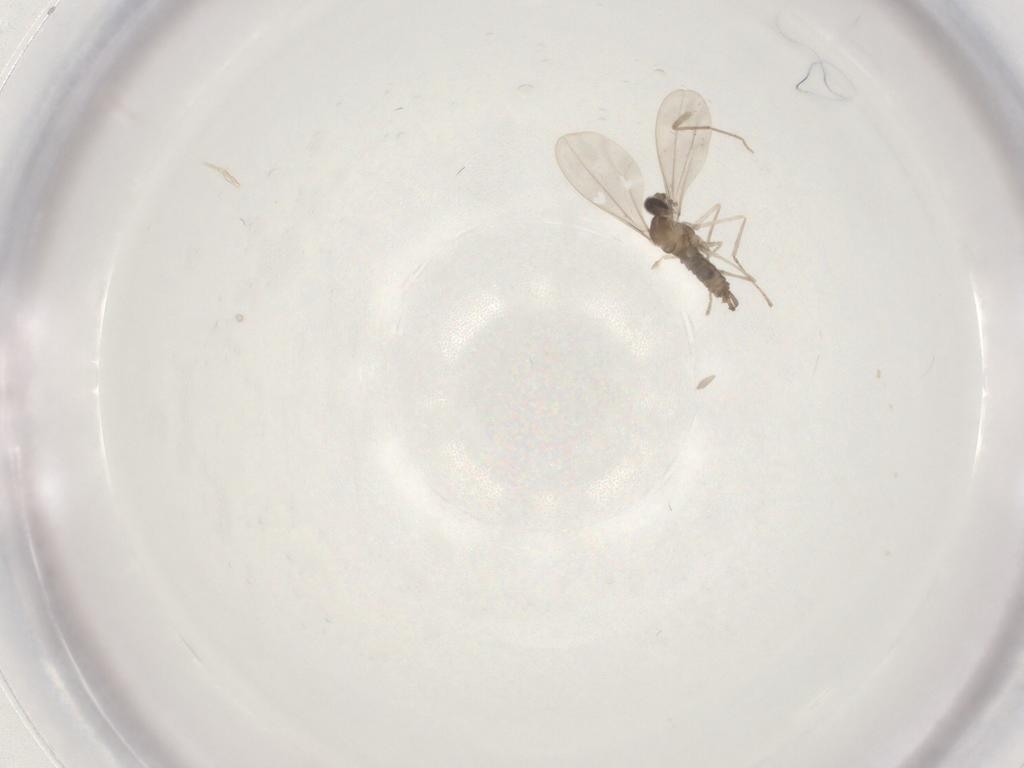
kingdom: Animalia
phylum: Arthropoda
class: Insecta
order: Diptera
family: Cecidomyiidae
